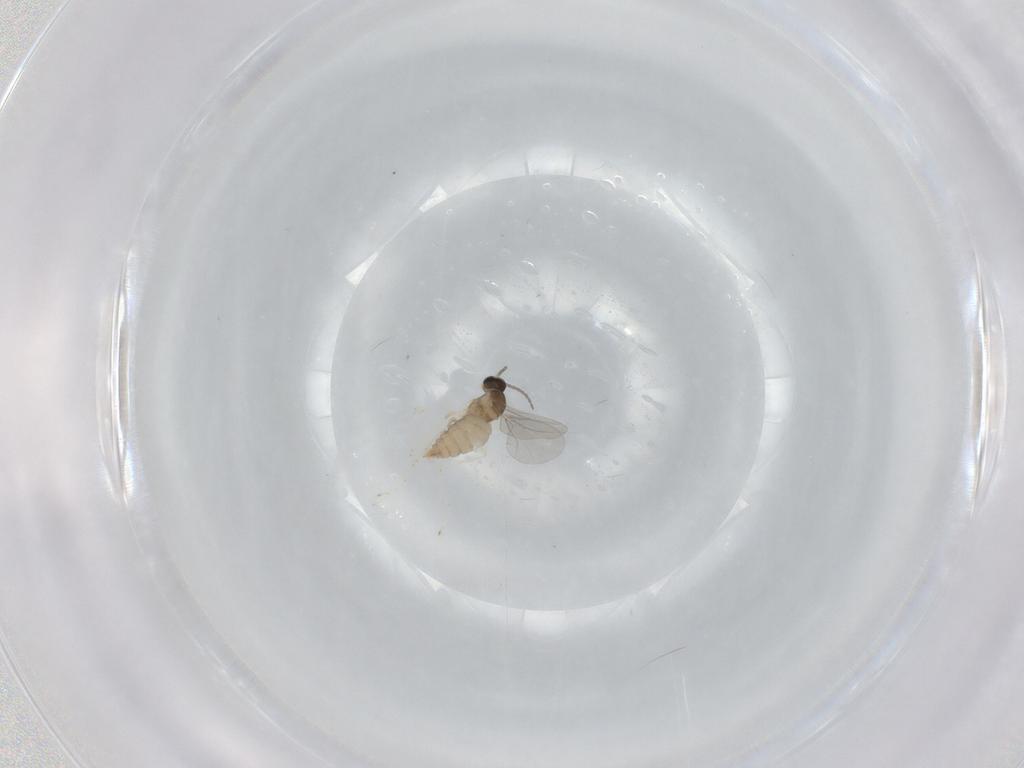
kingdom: Animalia
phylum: Arthropoda
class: Insecta
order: Diptera
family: Cecidomyiidae
